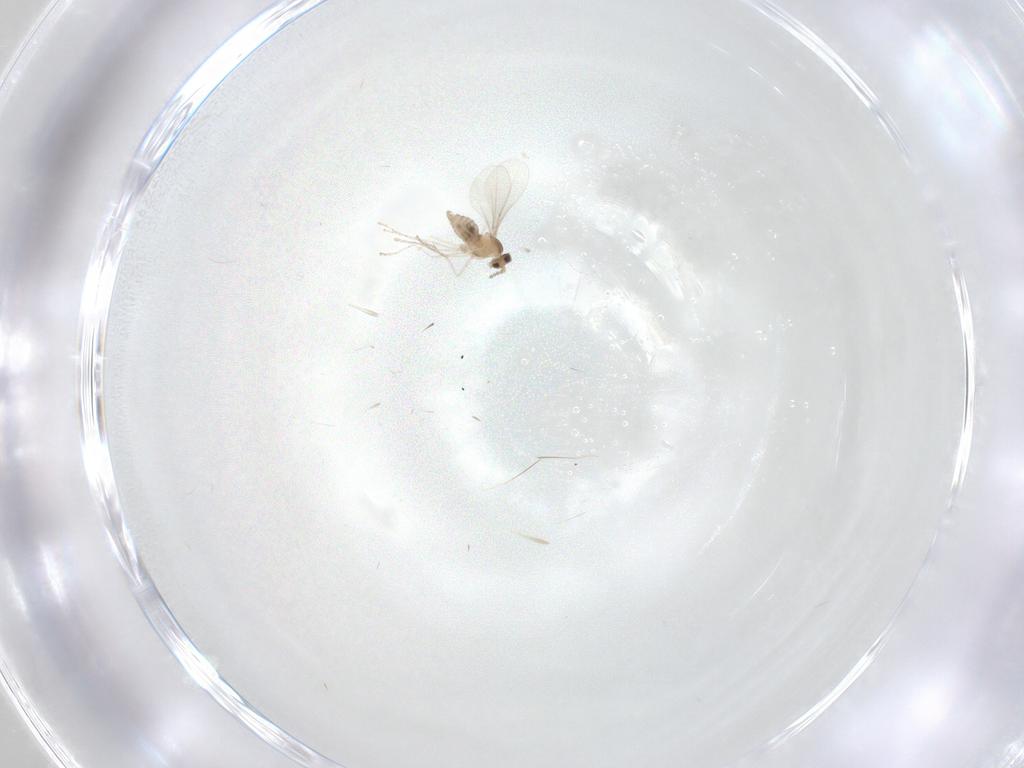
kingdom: Animalia
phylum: Arthropoda
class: Insecta
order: Diptera
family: Cecidomyiidae
